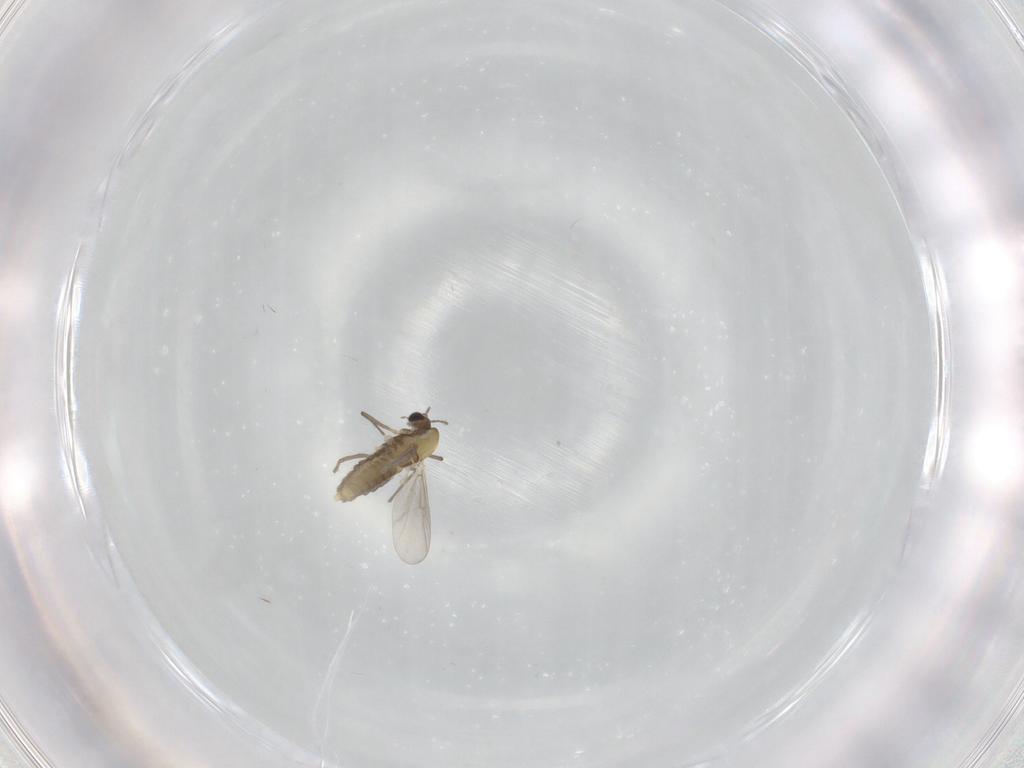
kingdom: Animalia
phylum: Arthropoda
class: Insecta
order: Diptera
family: Chironomidae
